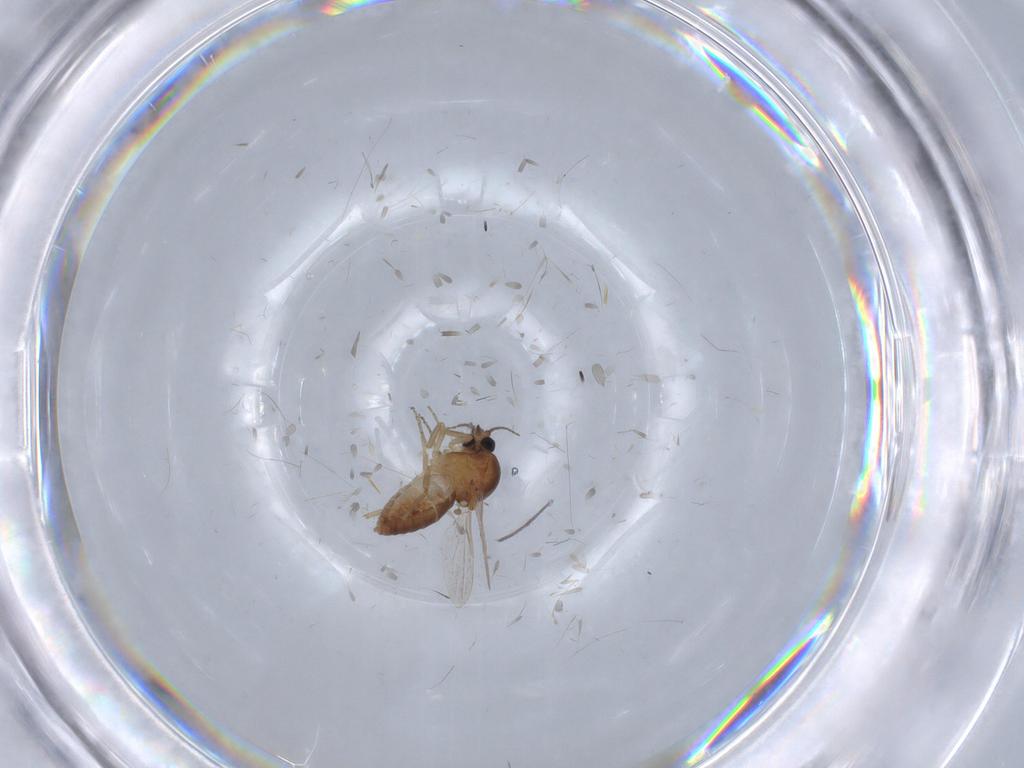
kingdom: Animalia
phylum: Arthropoda
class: Insecta
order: Diptera
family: Ceratopogonidae
